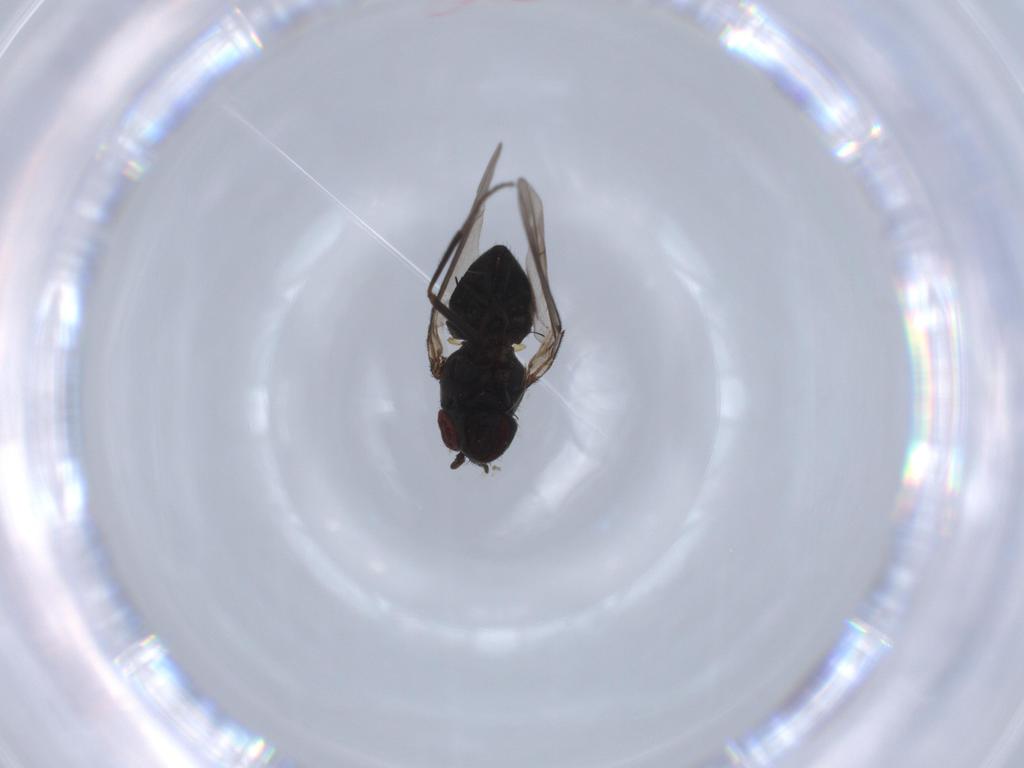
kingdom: Animalia
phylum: Arthropoda
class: Insecta
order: Diptera
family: Ephydridae
